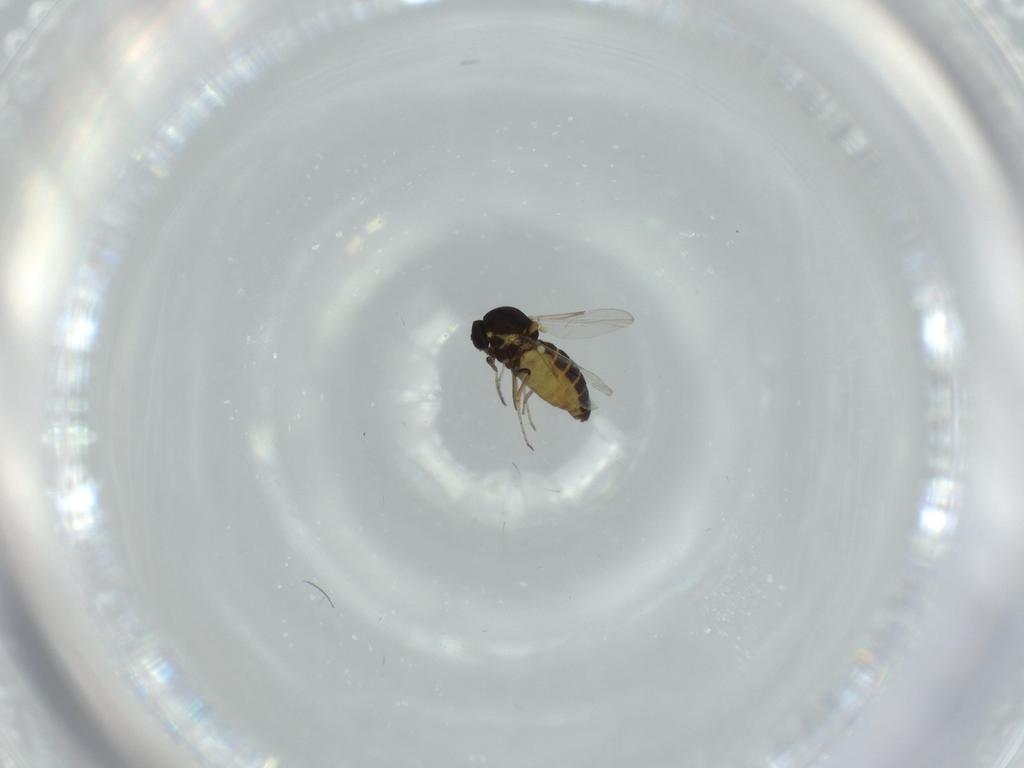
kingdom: Animalia
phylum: Arthropoda
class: Insecta
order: Diptera
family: Chironomidae
